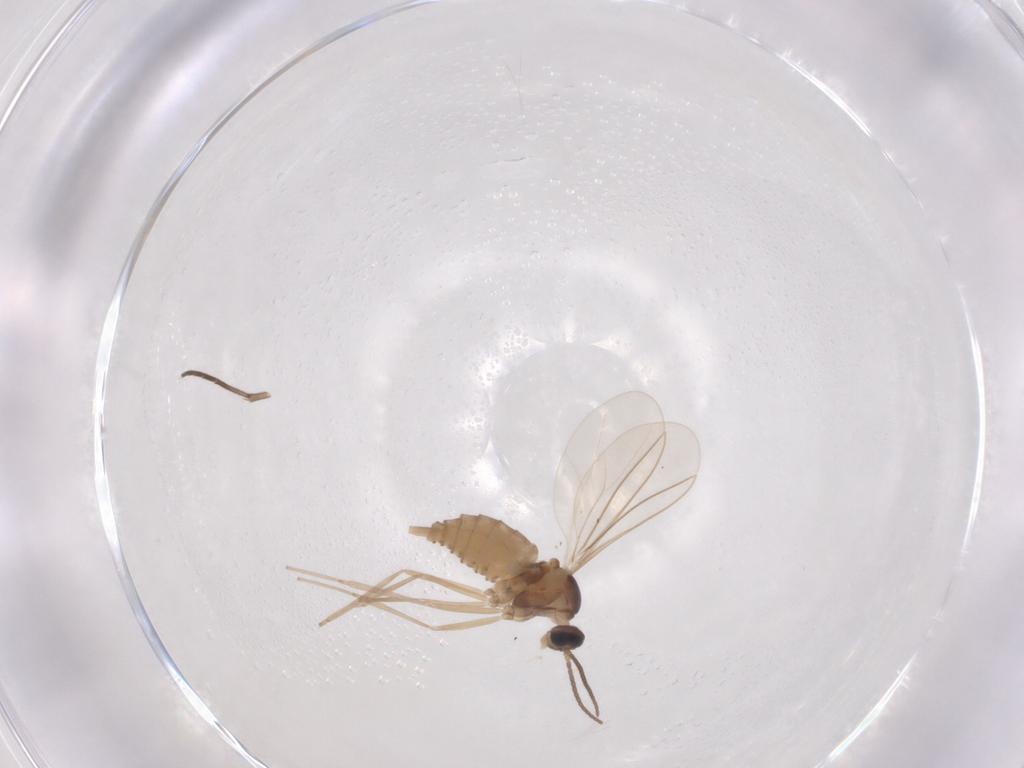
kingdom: Animalia
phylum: Arthropoda
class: Insecta
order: Diptera
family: Cecidomyiidae
